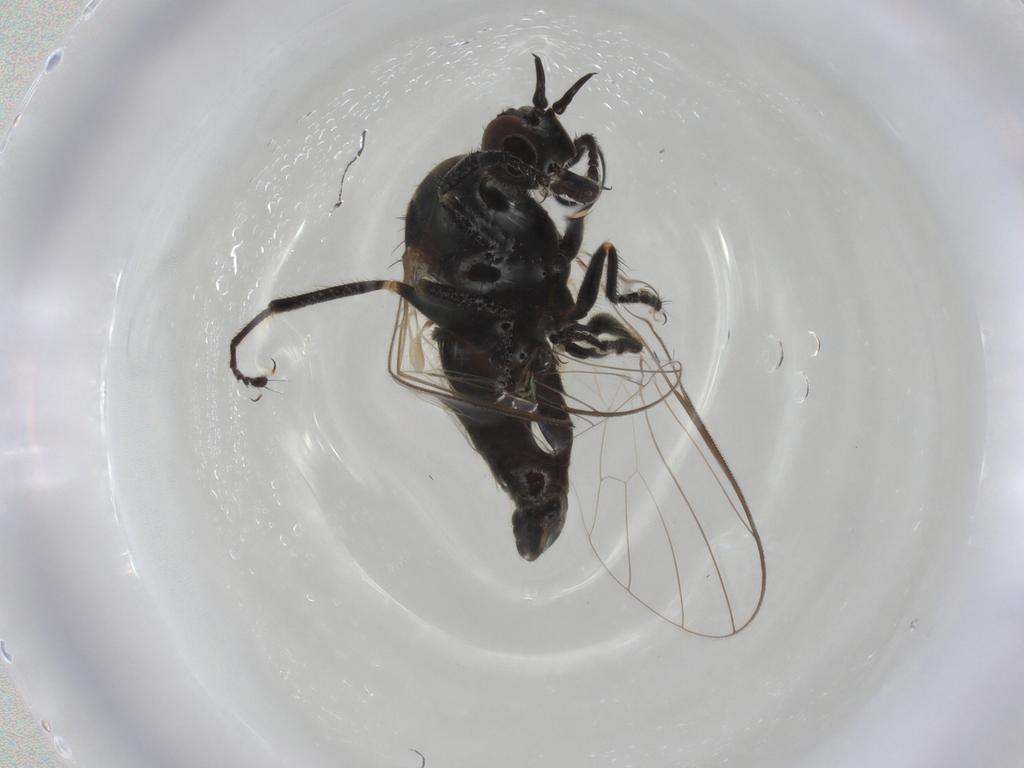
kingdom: Animalia
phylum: Arthropoda
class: Insecta
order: Diptera
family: Empididae
